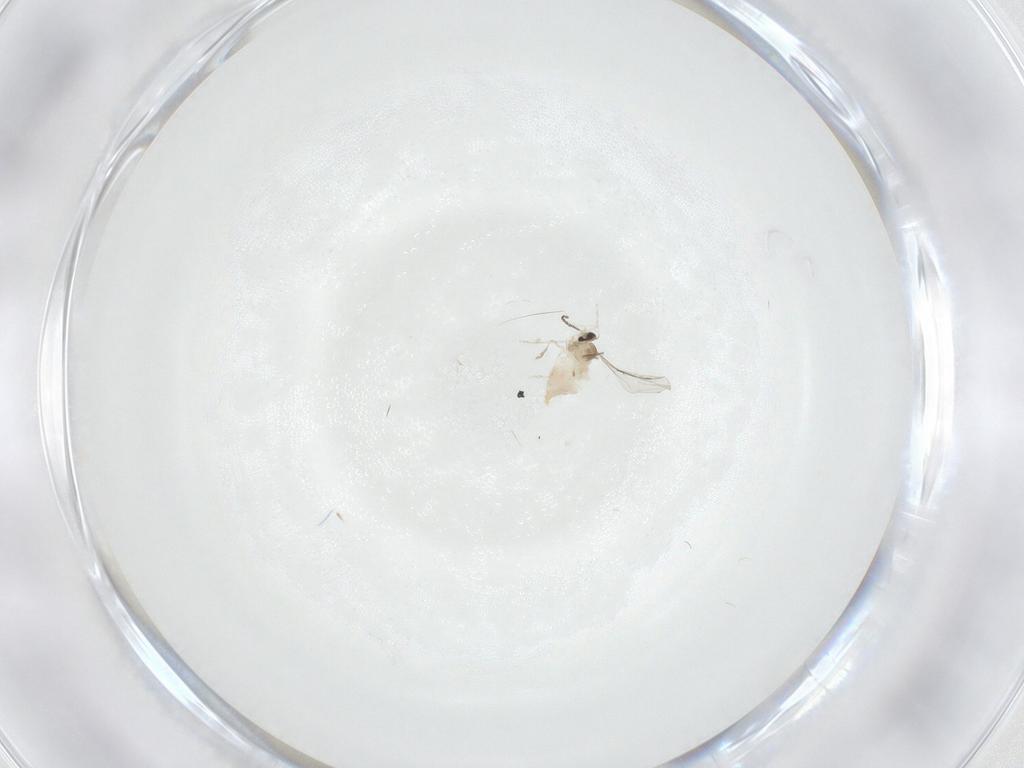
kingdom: Animalia
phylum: Arthropoda
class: Insecta
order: Diptera
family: Cecidomyiidae
